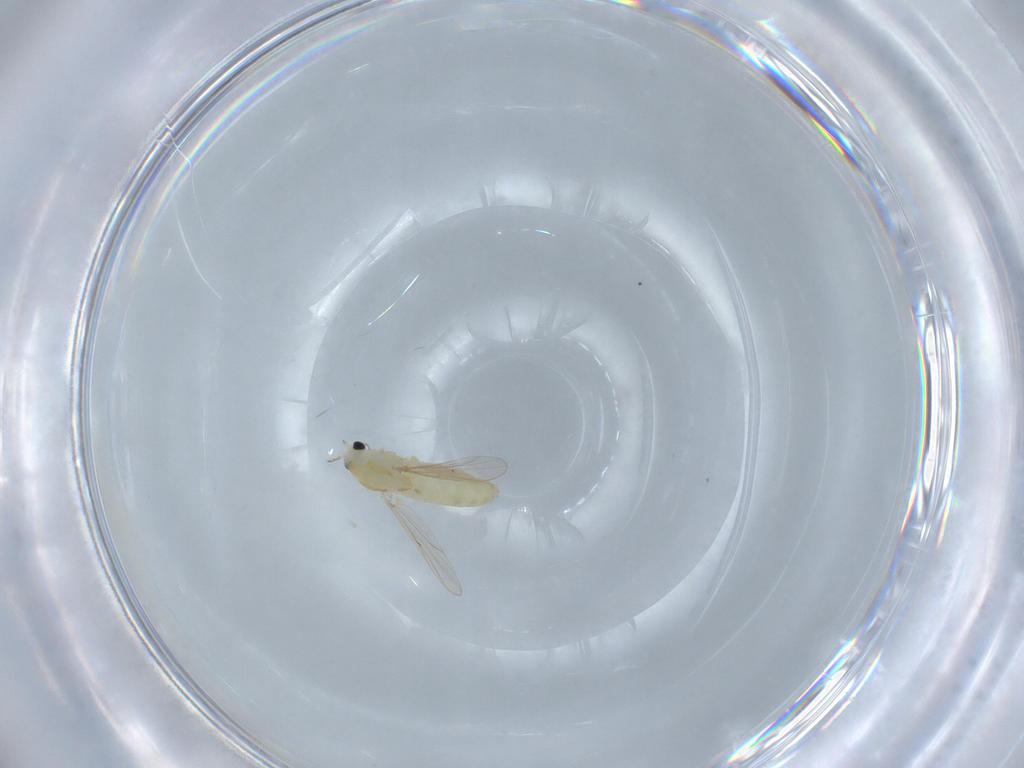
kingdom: Animalia
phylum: Arthropoda
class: Insecta
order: Diptera
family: Chironomidae
